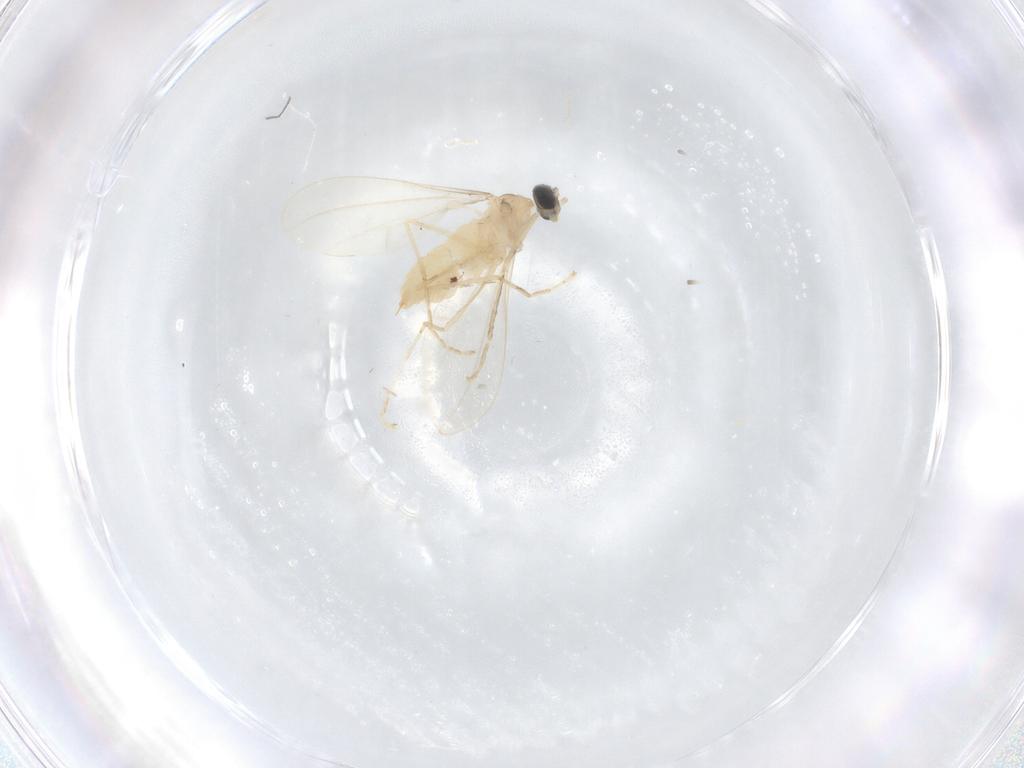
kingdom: Animalia
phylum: Arthropoda
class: Insecta
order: Diptera
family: Cecidomyiidae
